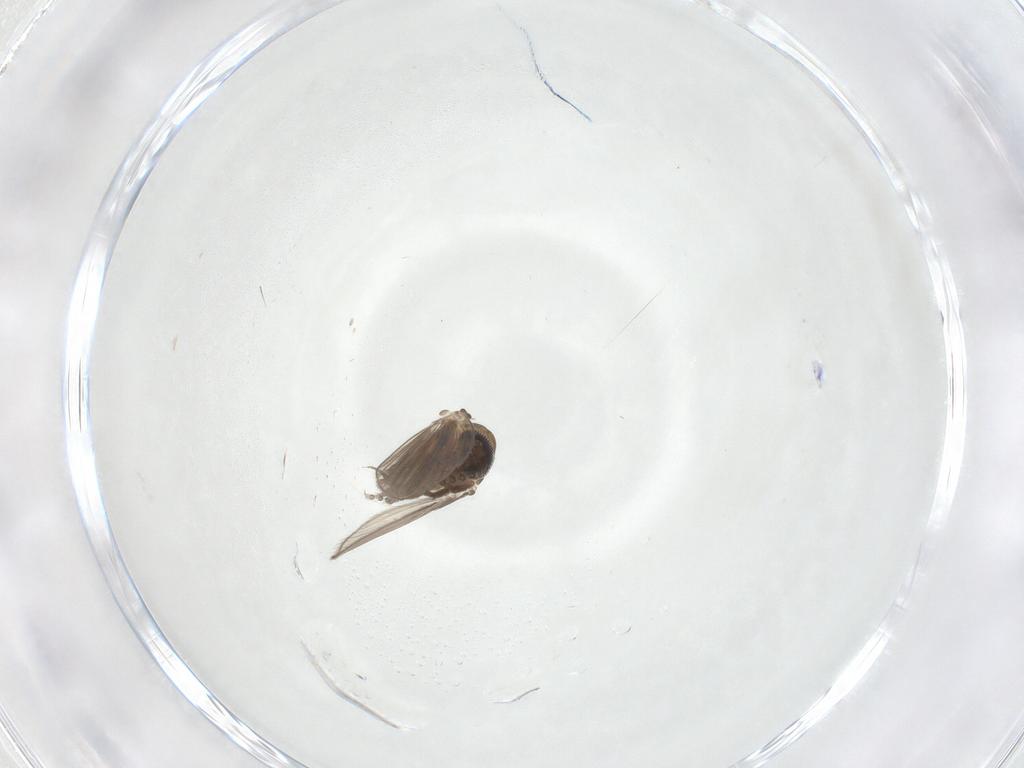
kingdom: Animalia
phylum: Arthropoda
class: Insecta
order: Diptera
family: Psychodidae
